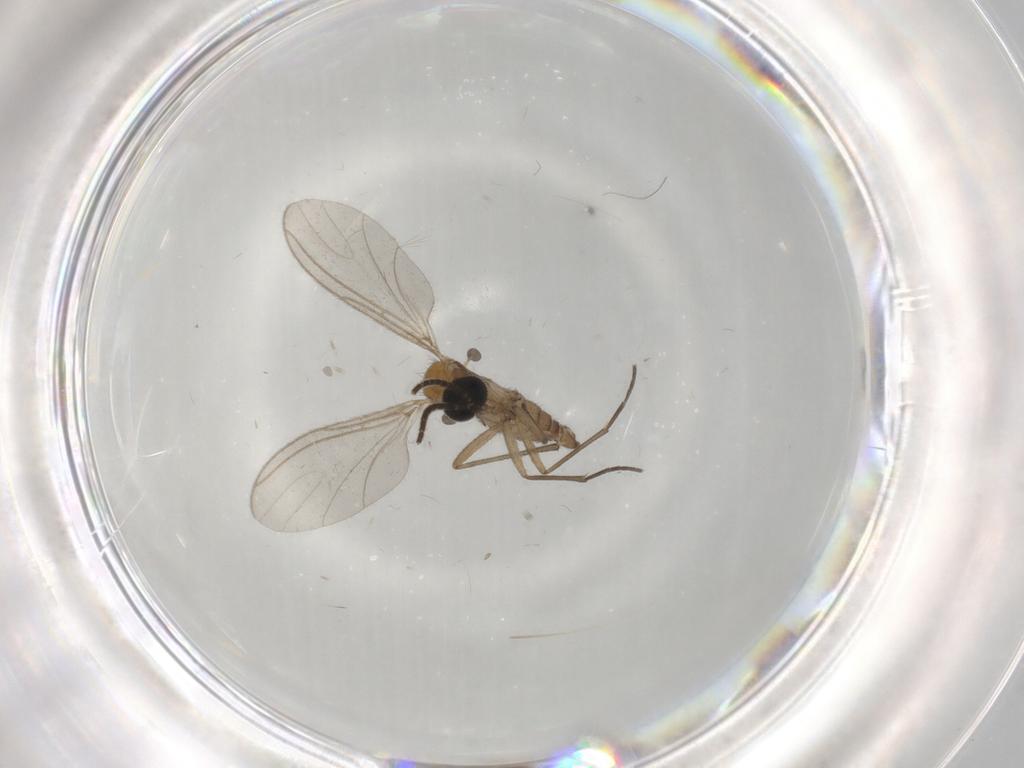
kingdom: Animalia
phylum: Arthropoda
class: Insecta
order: Diptera
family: Sciaridae
